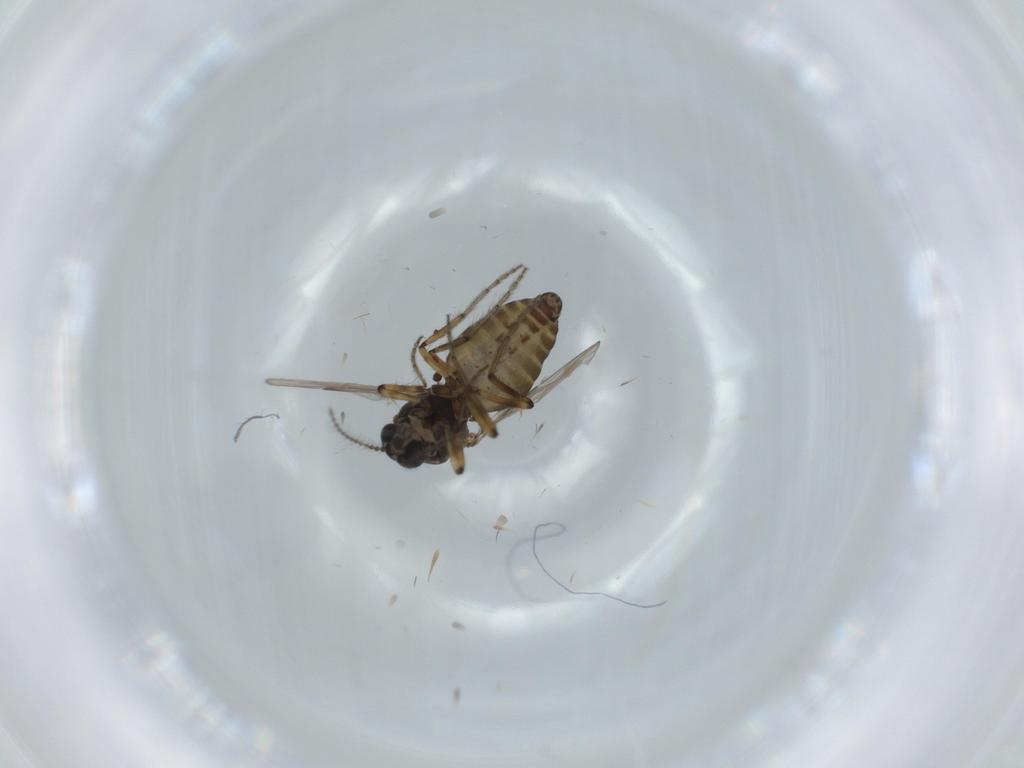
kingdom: Animalia
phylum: Arthropoda
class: Insecta
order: Diptera
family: Ceratopogonidae
